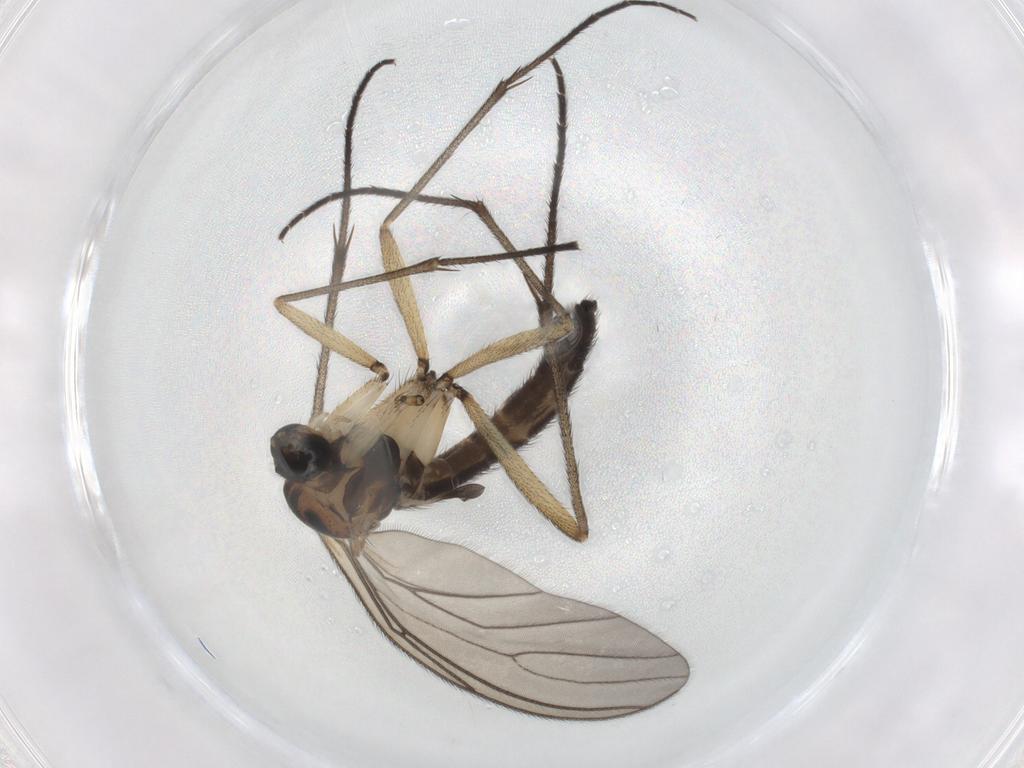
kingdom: Animalia
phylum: Arthropoda
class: Insecta
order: Diptera
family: Sciaridae
